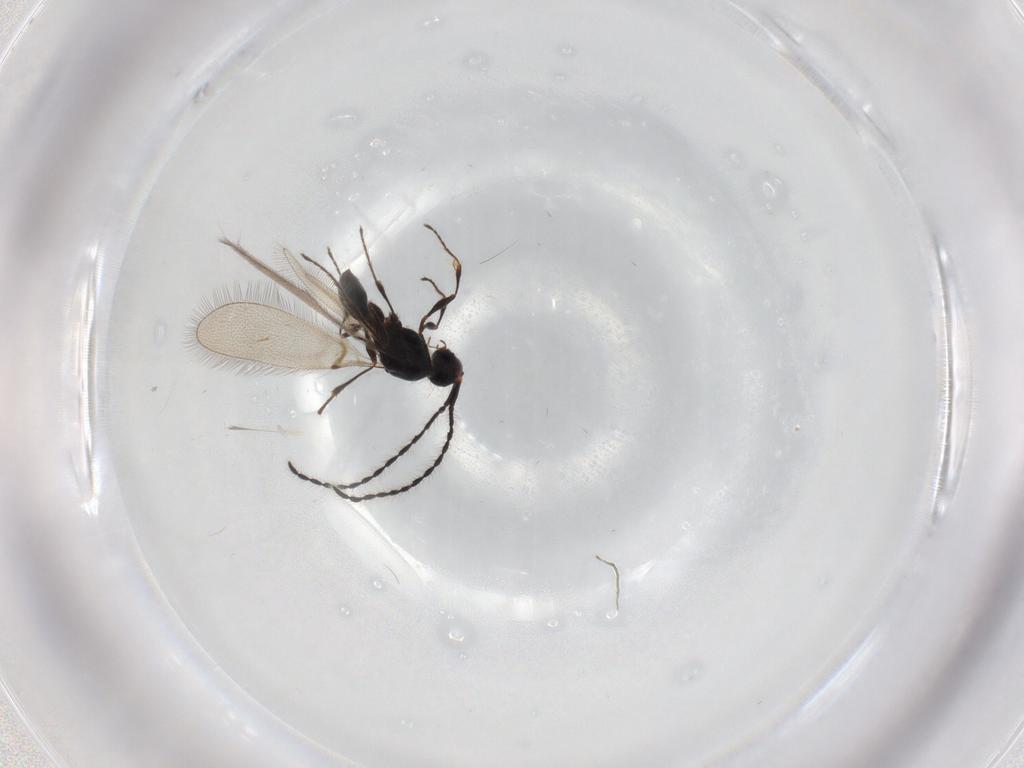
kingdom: Animalia
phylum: Arthropoda
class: Insecta
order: Hymenoptera
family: Diapriidae
